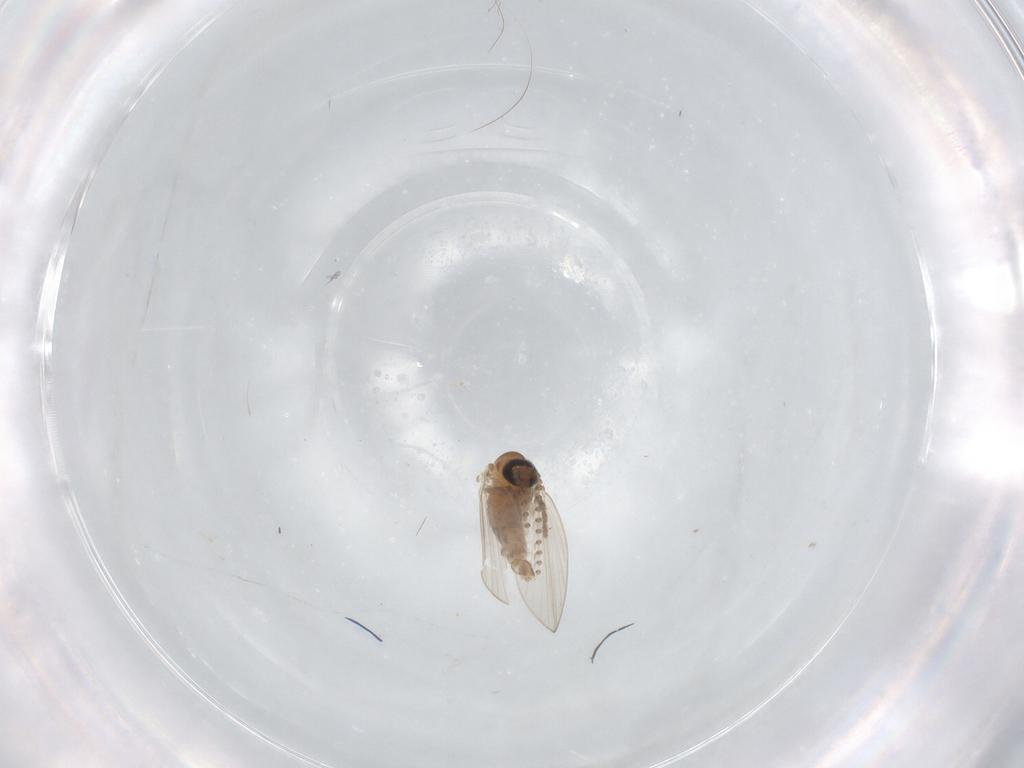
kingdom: Animalia
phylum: Arthropoda
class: Insecta
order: Diptera
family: Psychodidae
